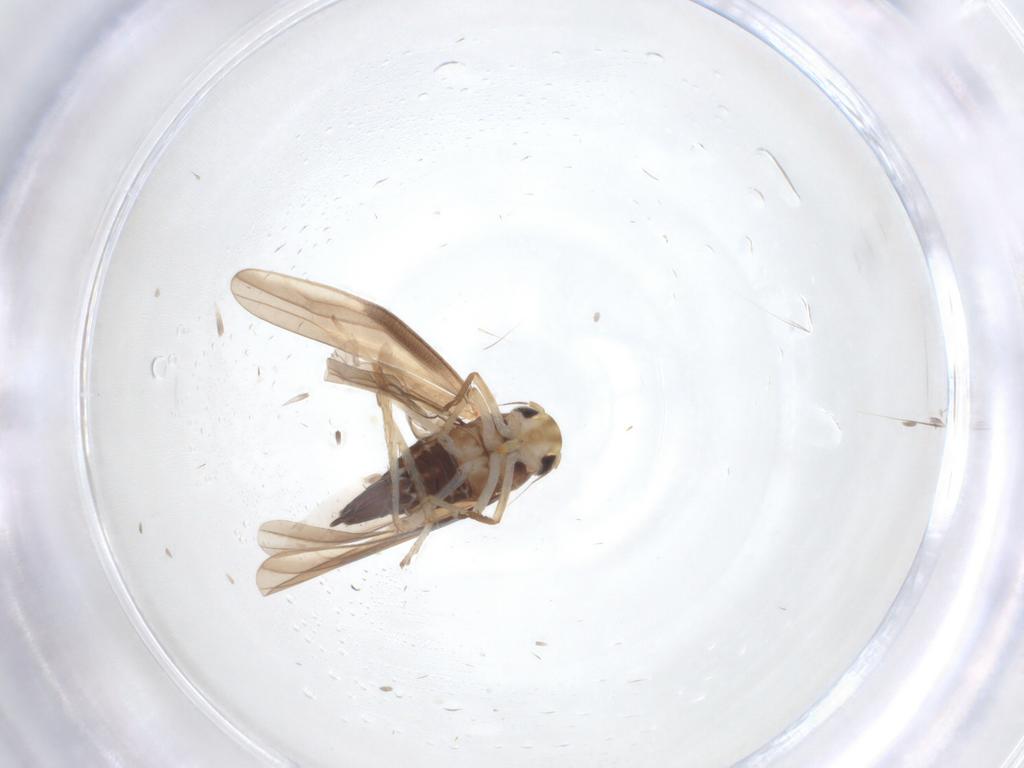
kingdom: Animalia
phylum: Arthropoda
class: Insecta
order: Hemiptera
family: Cicadellidae
